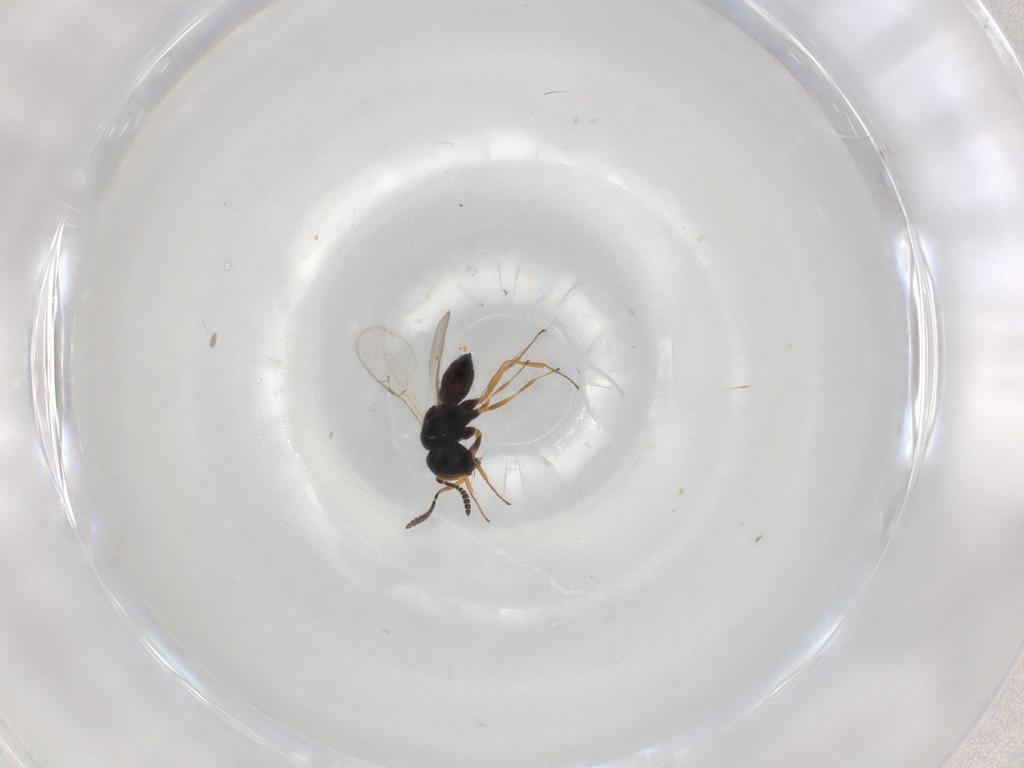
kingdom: Animalia
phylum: Arthropoda
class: Insecta
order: Hymenoptera
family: Scelionidae
